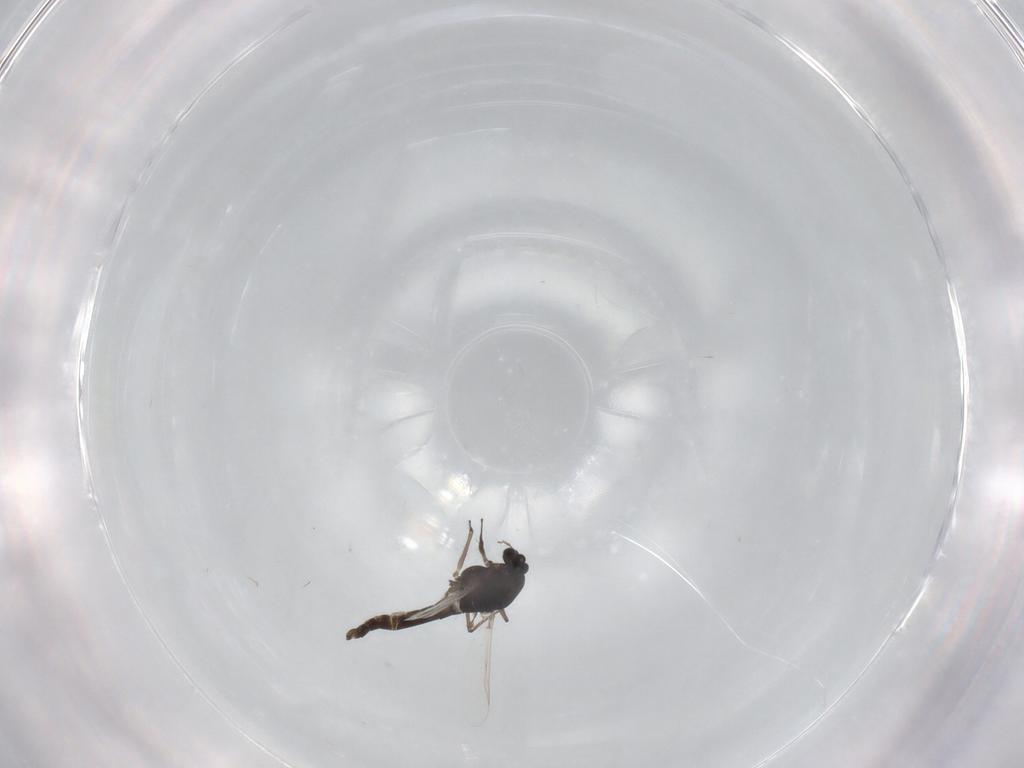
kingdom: Animalia
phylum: Arthropoda
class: Insecta
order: Diptera
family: Chironomidae
